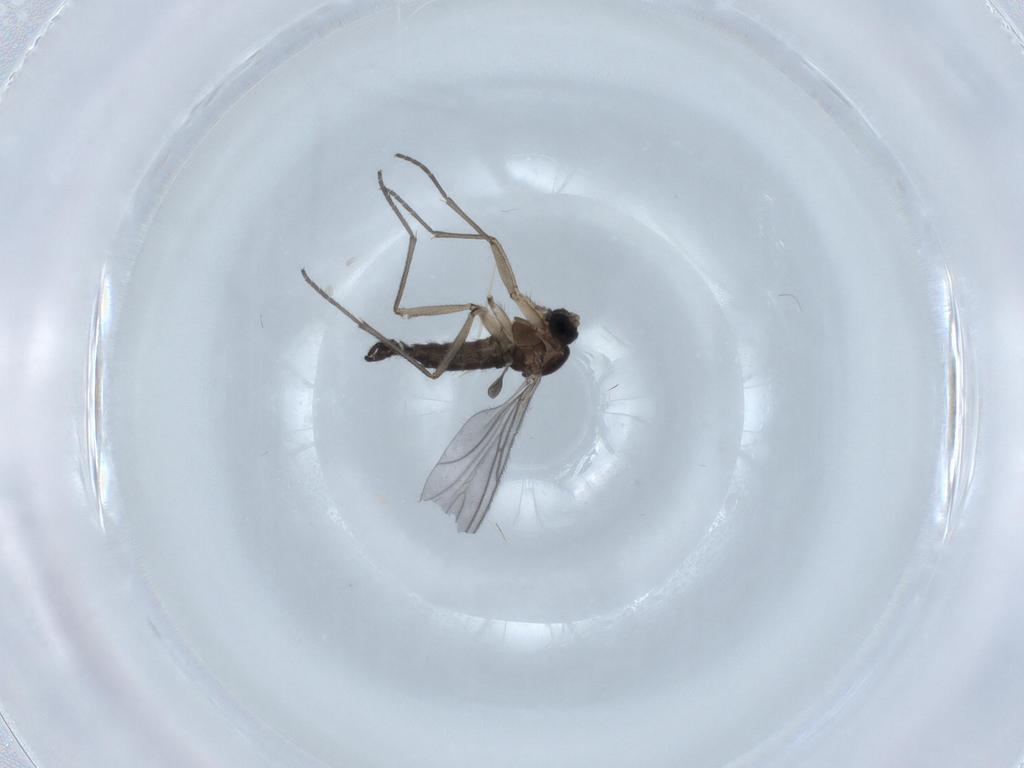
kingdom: Animalia
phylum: Arthropoda
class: Insecta
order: Diptera
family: Sciaridae
